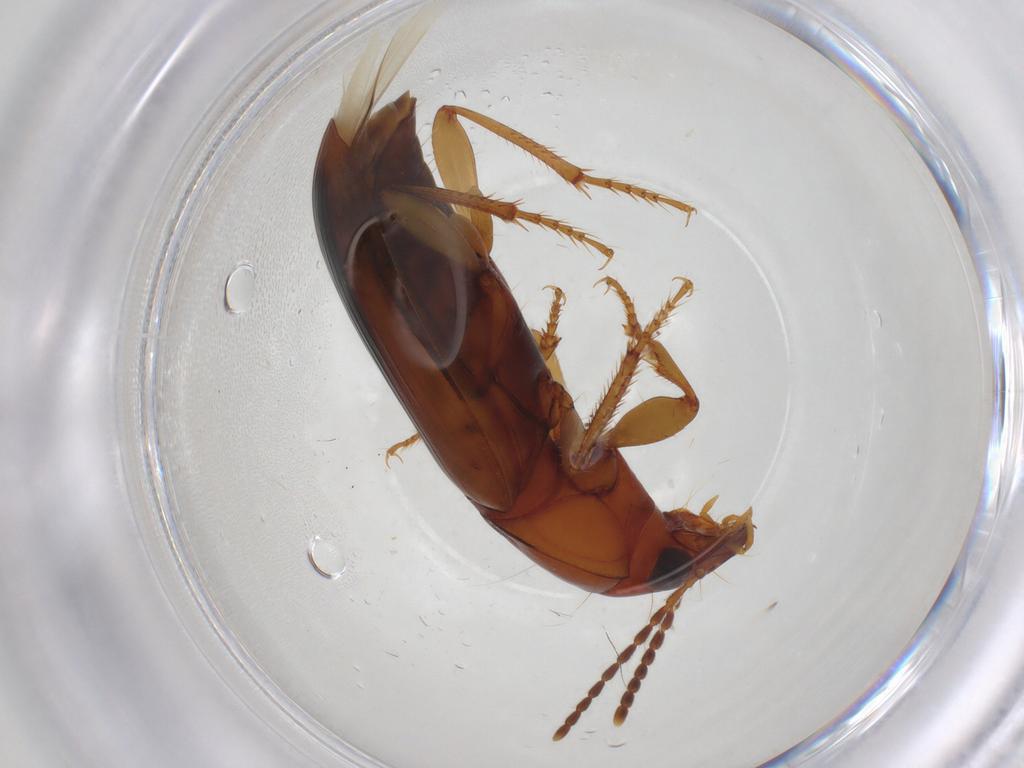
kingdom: Animalia
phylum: Arthropoda
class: Insecta
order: Coleoptera
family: Carabidae
